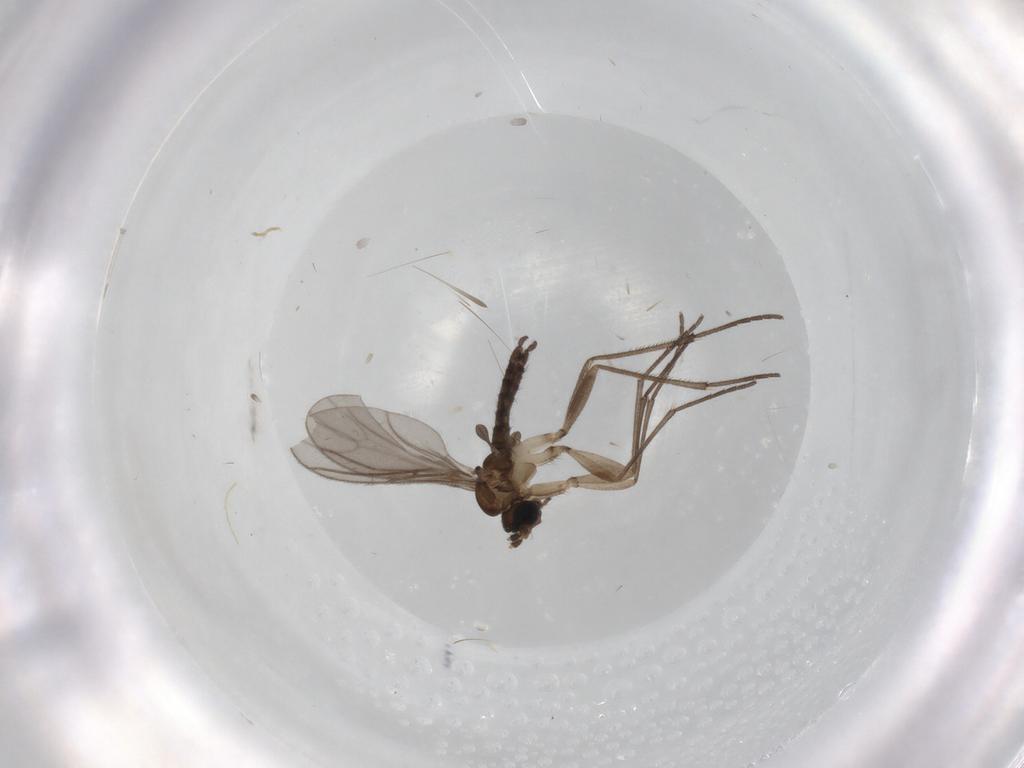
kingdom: Animalia
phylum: Arthropoda
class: Insecta
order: Diptera
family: Sciaridae
